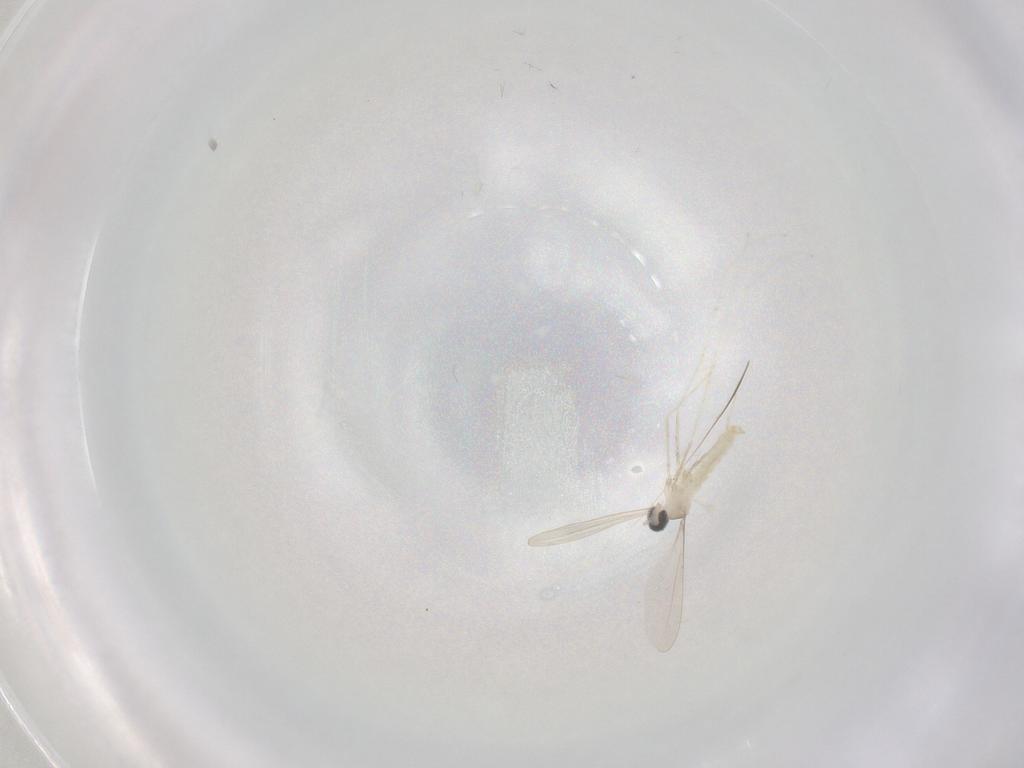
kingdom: Animalia
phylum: Arthropoda
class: Insecta
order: Diptera
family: Cecidomyiidae
